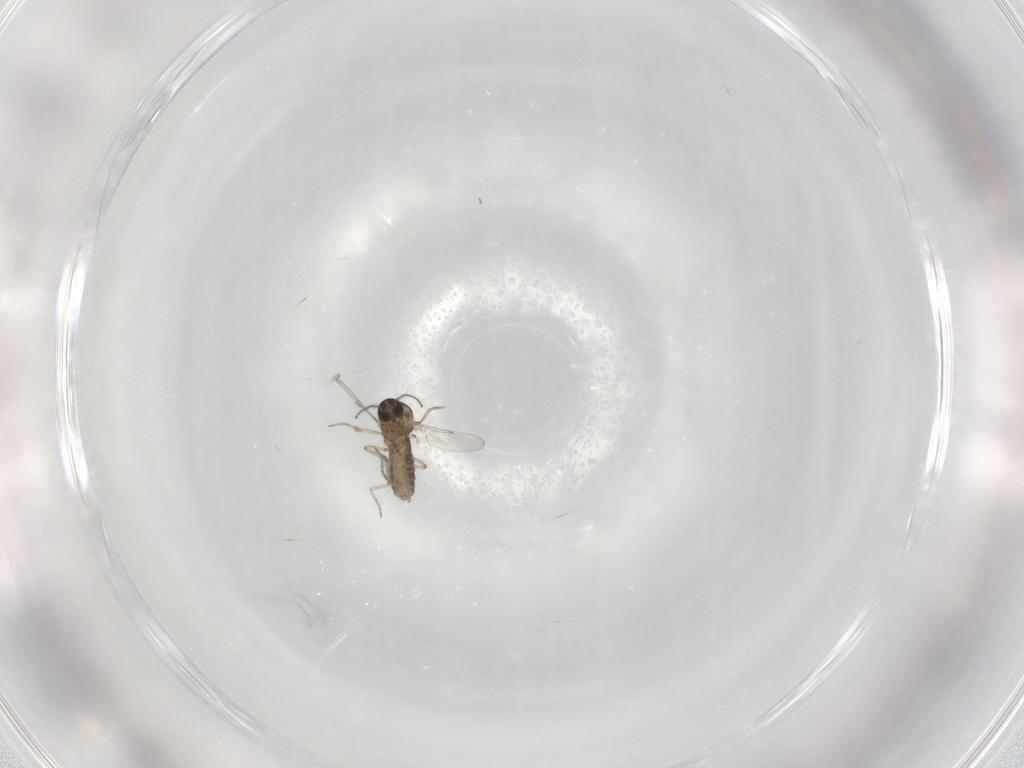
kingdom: Animalia
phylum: Arthropoda
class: Insecta
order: Diptera
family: Ceratopogonidae
